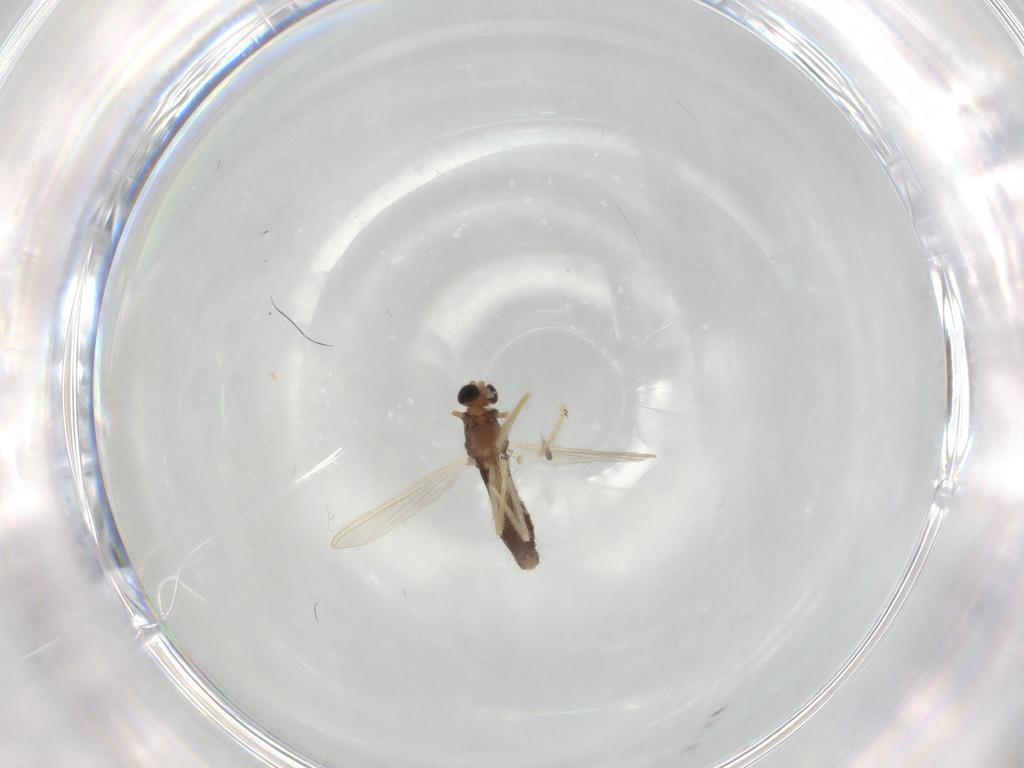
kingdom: Animalia
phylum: Arthropoda
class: Insecta
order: Diptera
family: Chironomidae
